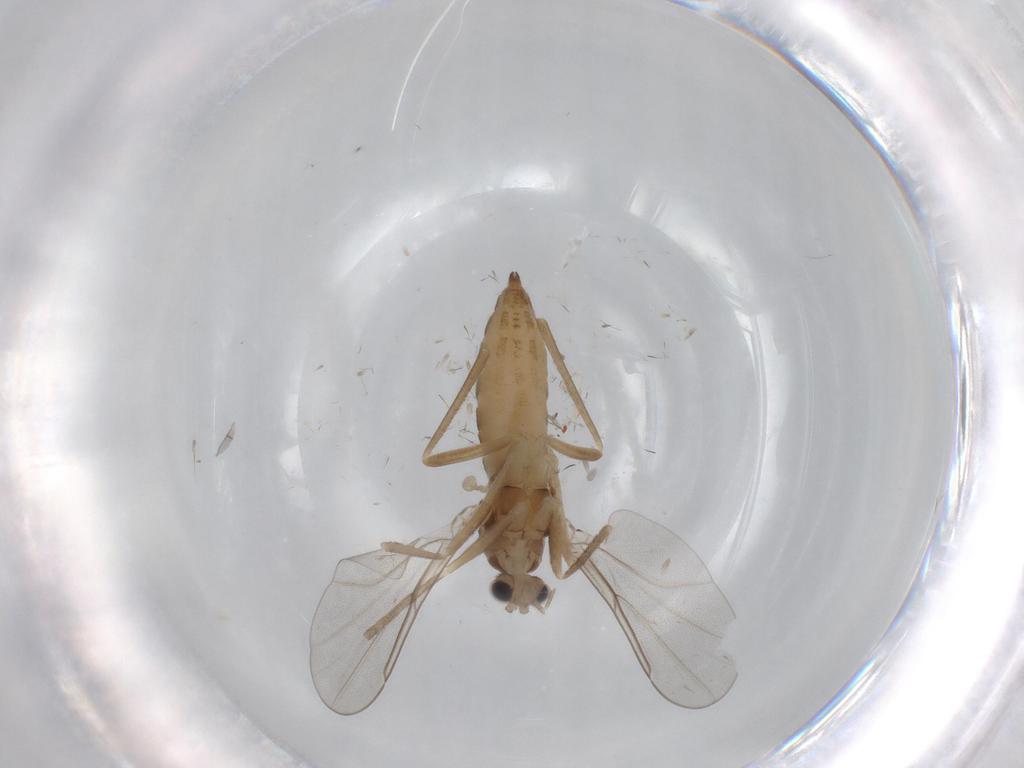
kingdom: Animalia
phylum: Arthropoda
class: Insecta
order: Diptera
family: Cecidomyiidae
